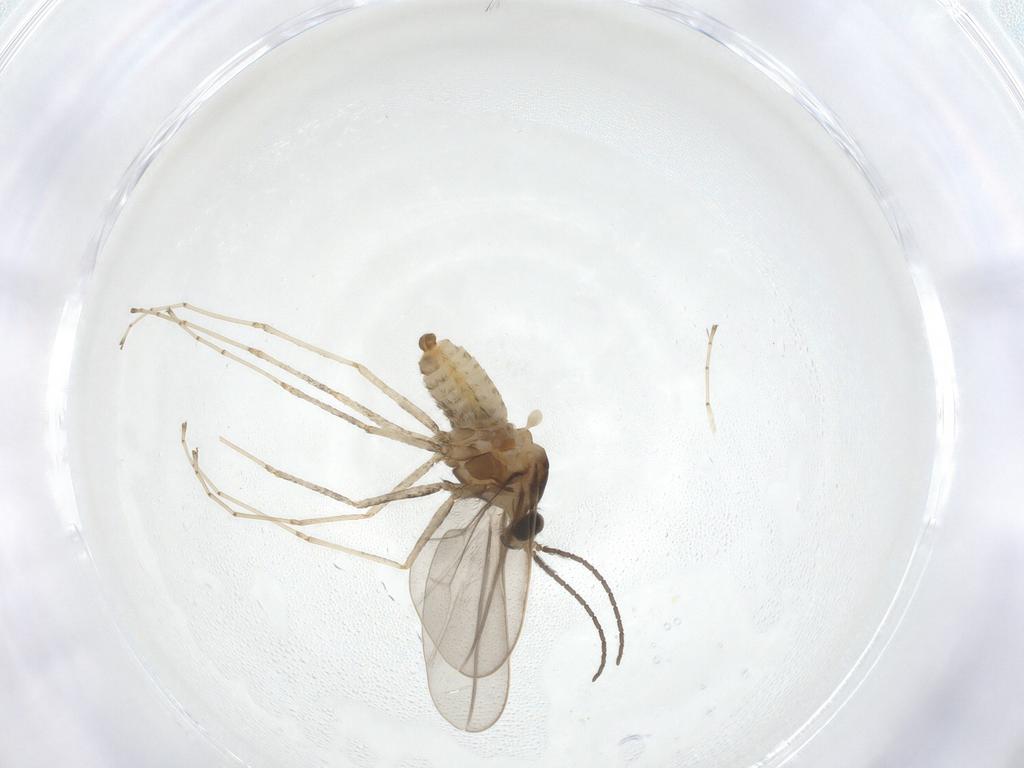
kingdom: Animalia
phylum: Arthropoda
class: Insecta
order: Diptera
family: Cecidomyiidae
